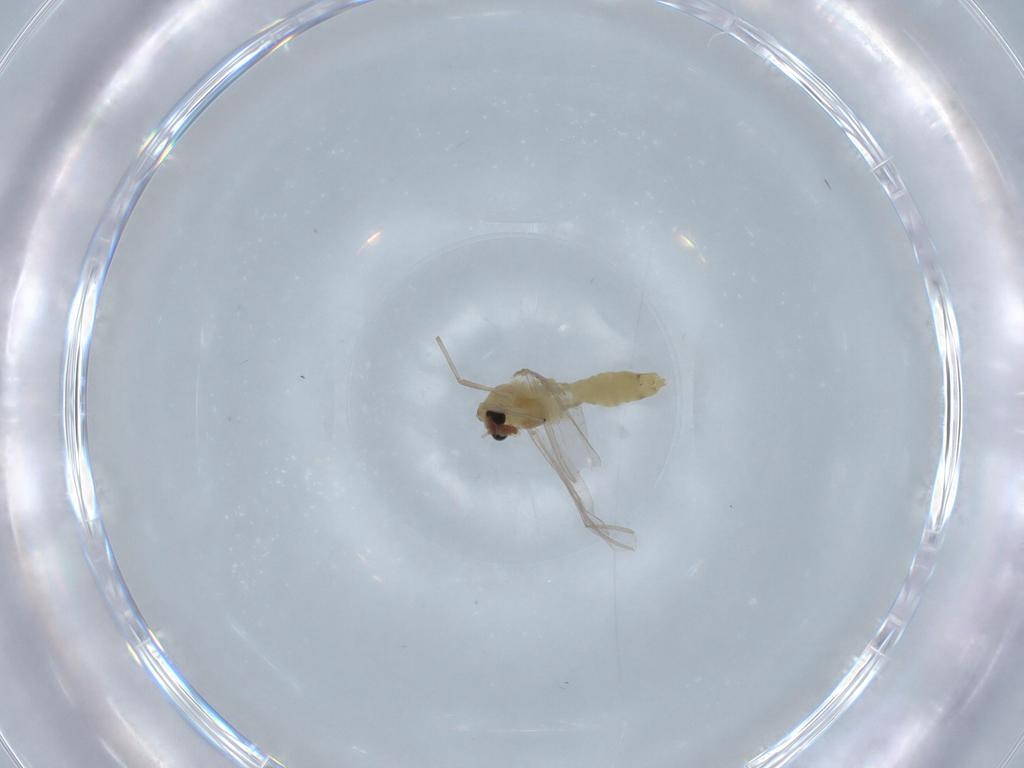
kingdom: Animalia
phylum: Arthropoda
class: Insecta
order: Diptera
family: Chironomidae
